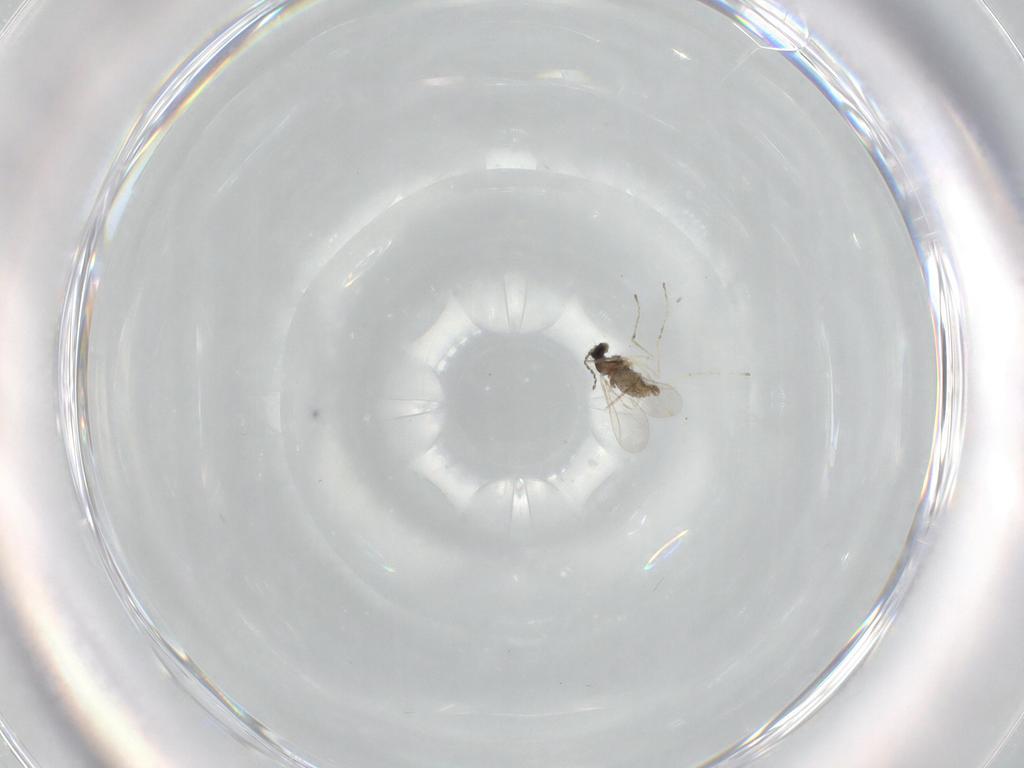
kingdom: Animalia
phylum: Arthropoda
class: Insecta
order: Diptera
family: Cecidomyiidae
